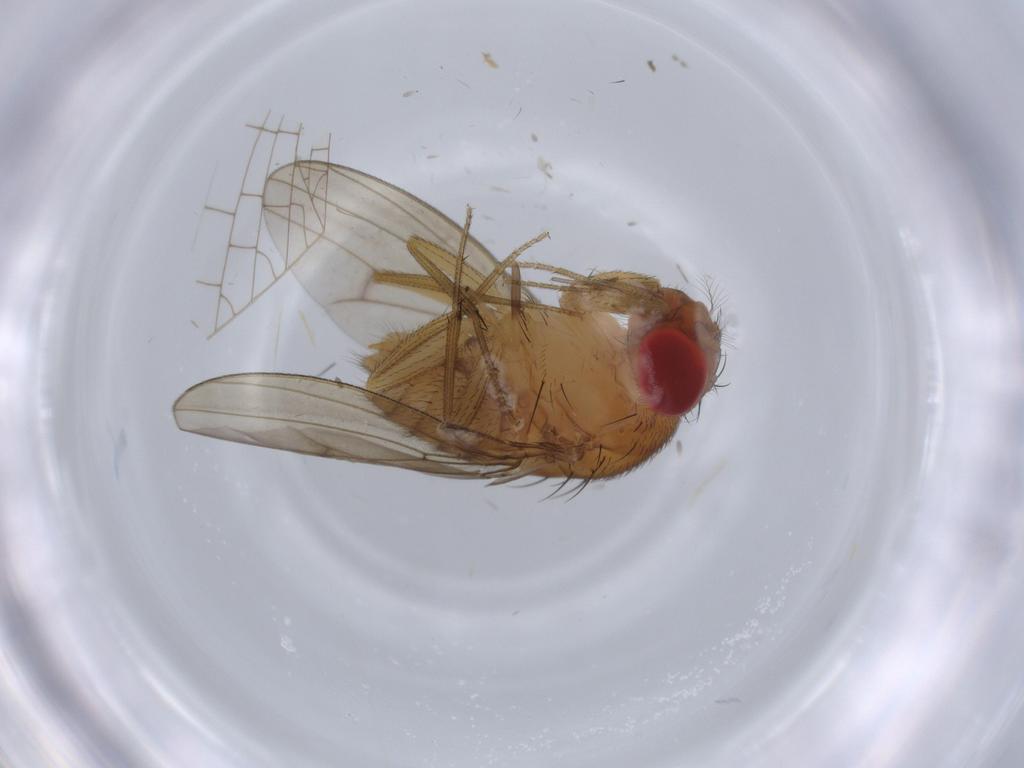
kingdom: Animalia
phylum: Arthropoda
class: Insecta
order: Diptera
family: Drosophilidae
